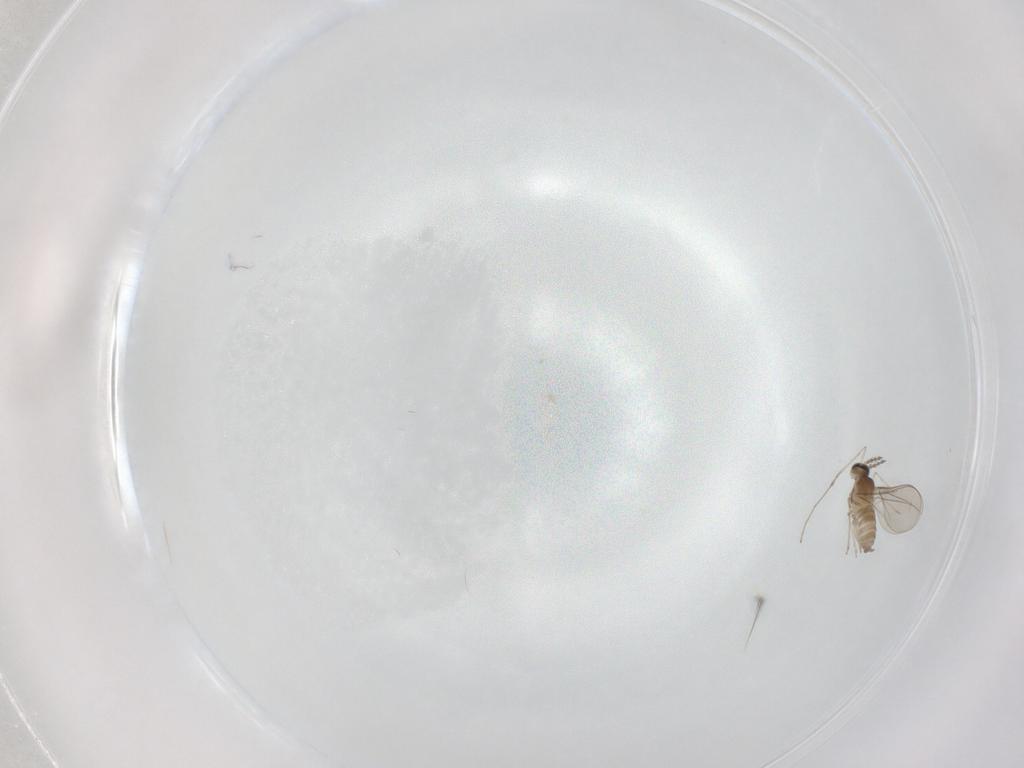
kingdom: Animalia
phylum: Arthropoda
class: Insecta
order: Diptera
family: Cecidomyiidae
